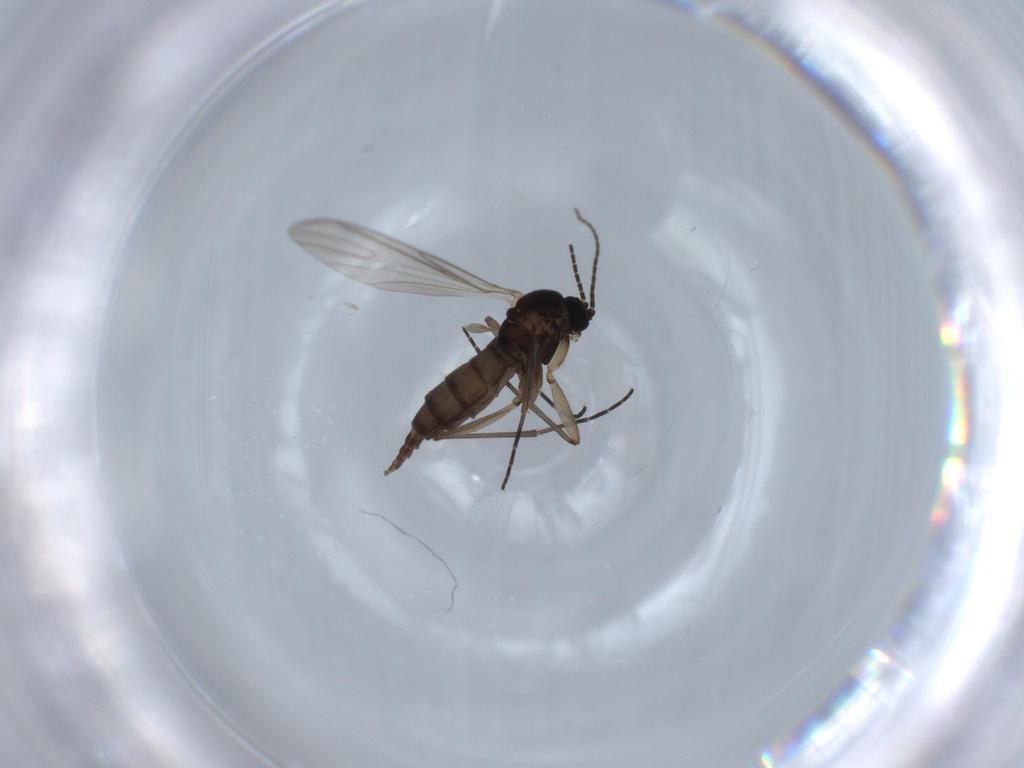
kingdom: Animalia
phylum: Arthropoda
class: Insecta
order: Diptera
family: Sciaridae
